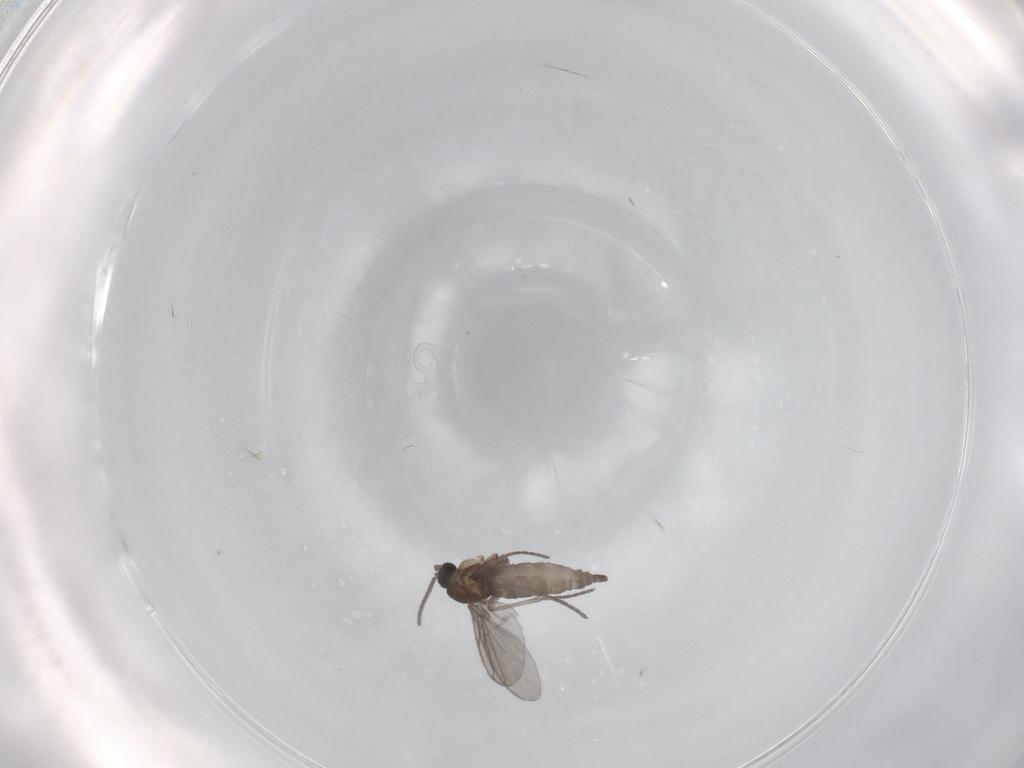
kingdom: Animalia
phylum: Arthropoda
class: Insecta
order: Diptera
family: Sciaridae
